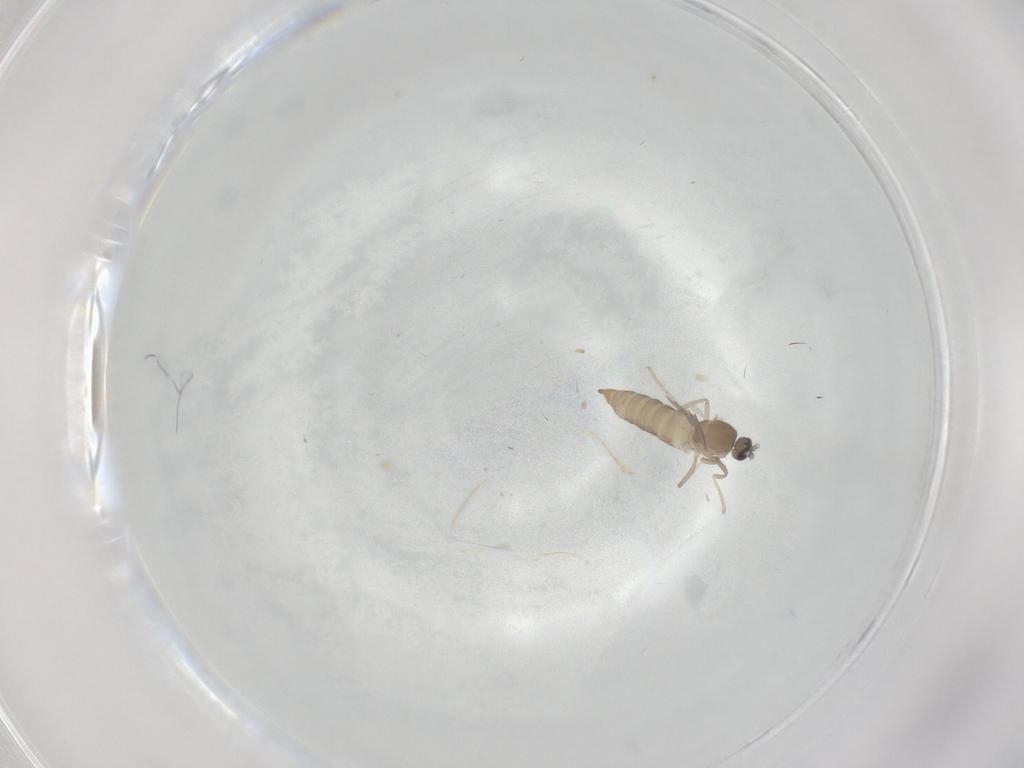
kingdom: Animalia
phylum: Arthropoda
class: Insecta
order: Diptera
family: Cecidomyiidae
